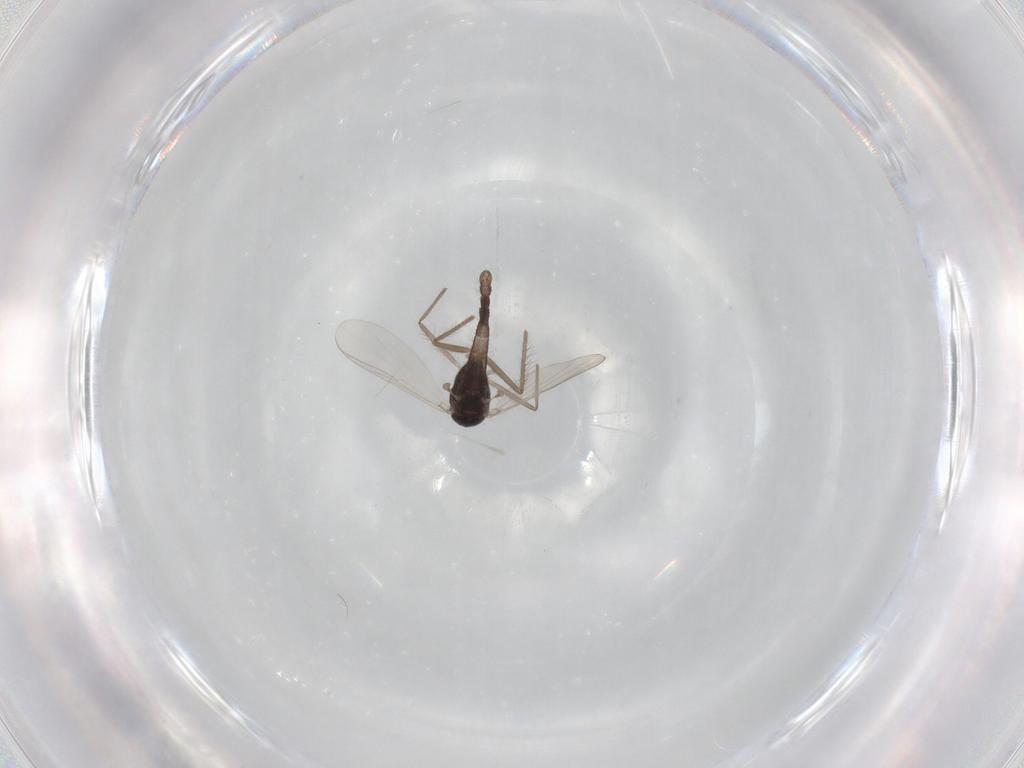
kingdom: Animalia
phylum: Arthropoda
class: Insecta
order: Diptera
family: Chironomidae
